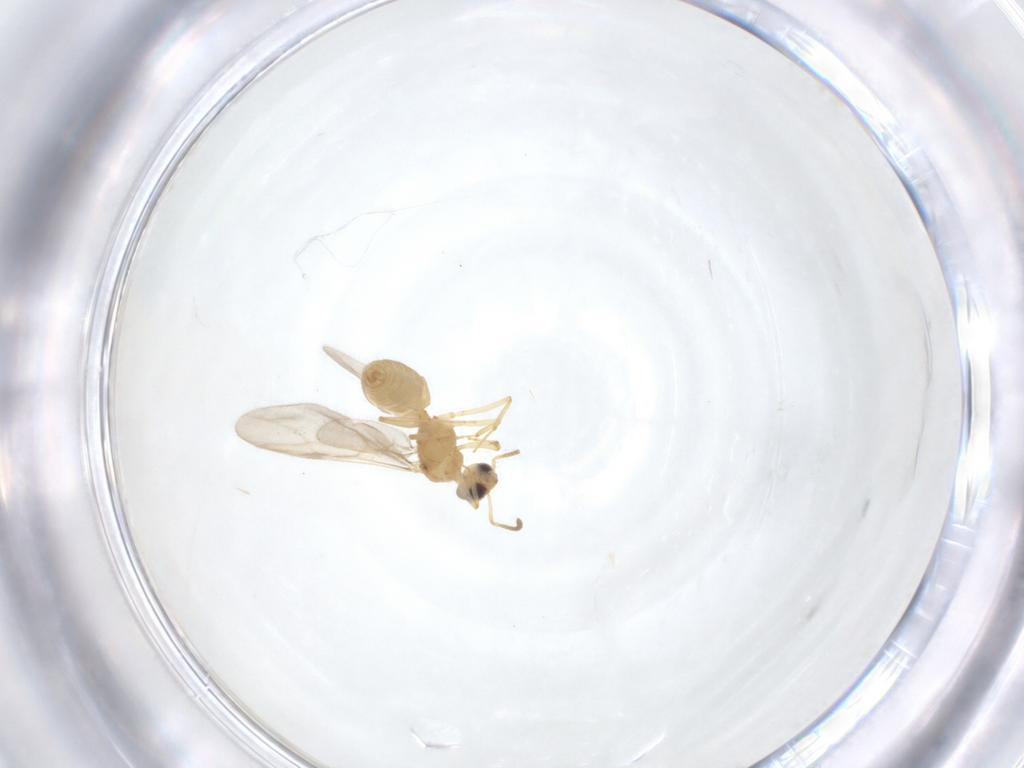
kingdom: Animalia
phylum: Arthropoda
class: Insecta
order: Hymenoptera
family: Formicidae
